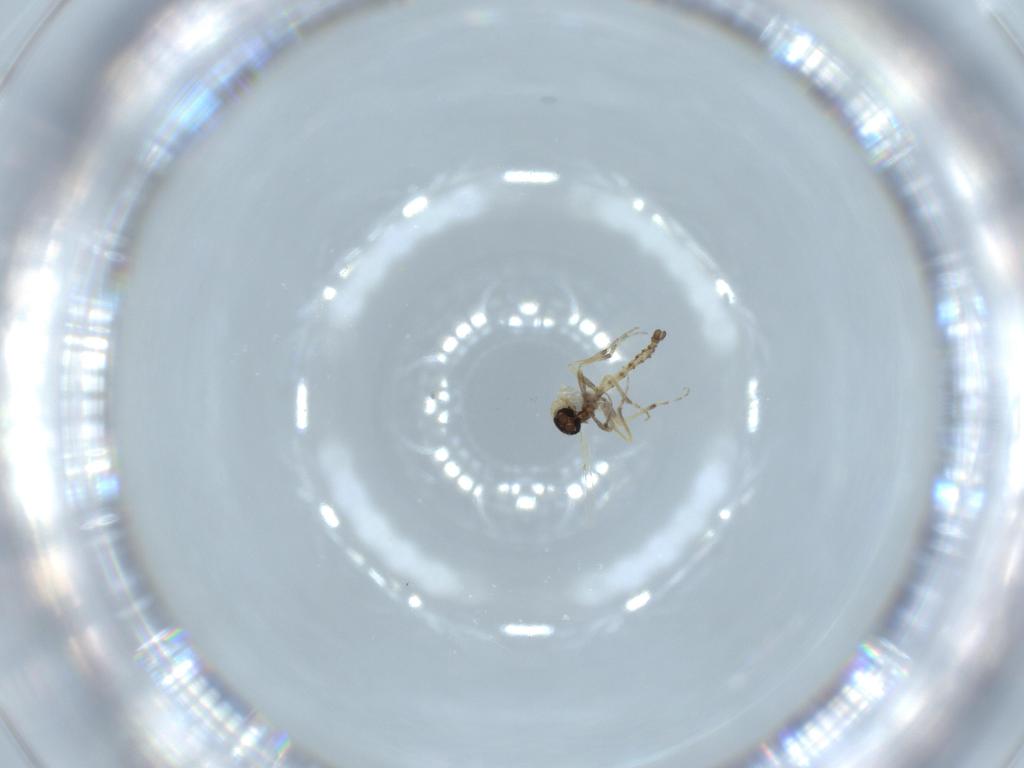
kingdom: Animalia
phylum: Arthropoda
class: Insecta
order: Diptera
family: Ceratopogonidae
